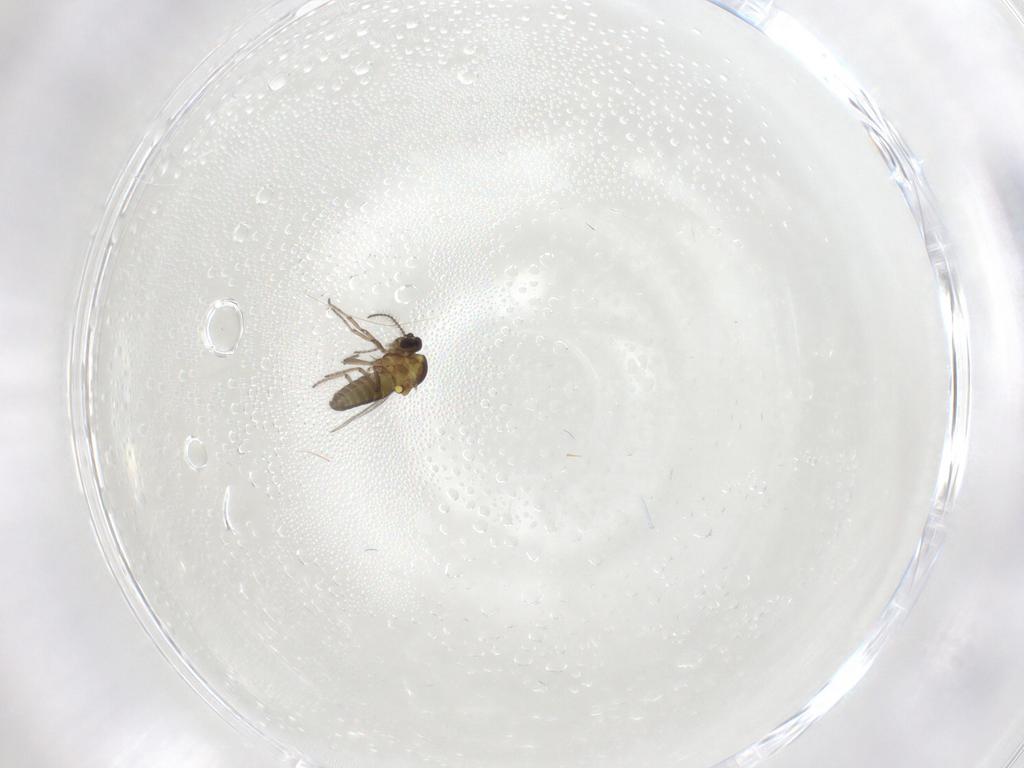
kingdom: Animalia
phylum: Arthropoda
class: Insecta
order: Diptera
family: Ceratopogonidae
